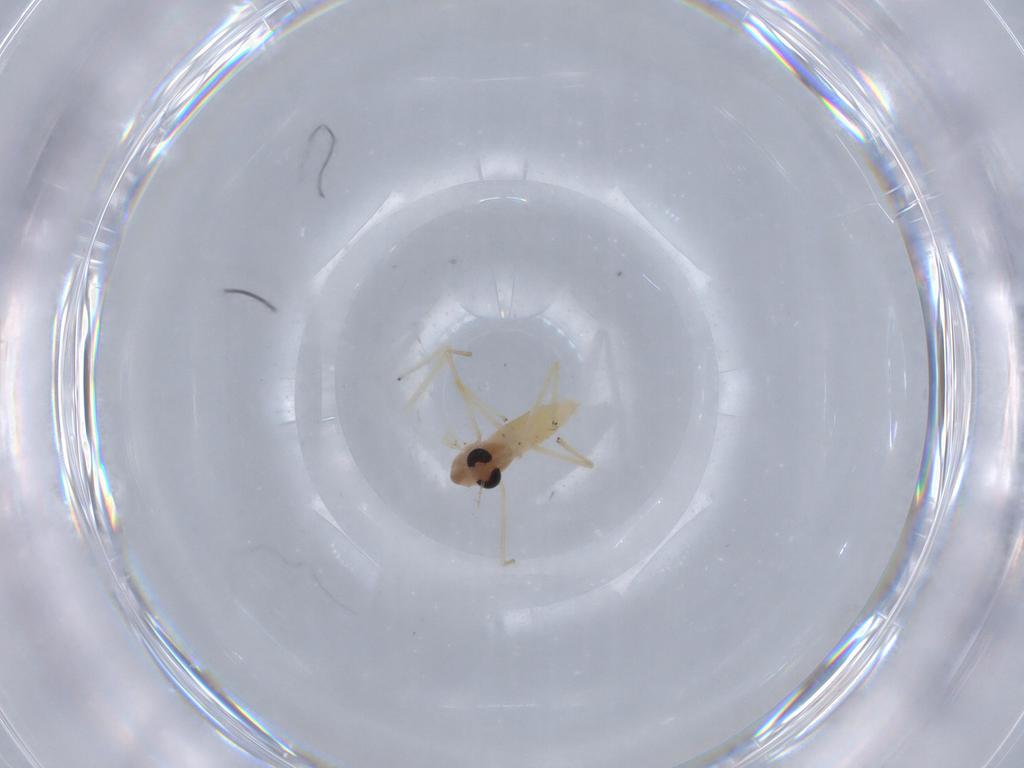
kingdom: Animalia
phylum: Arthropoda
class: Insecta
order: Diptera
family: Chironomidae
